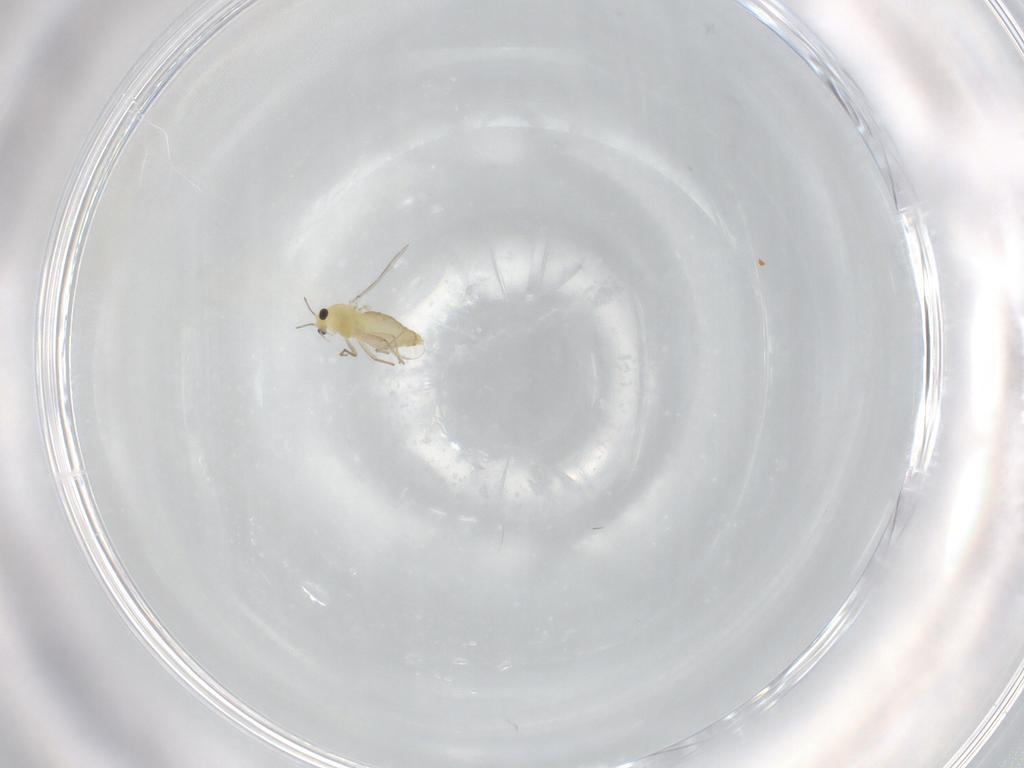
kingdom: Animalia
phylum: Arthropoda
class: Insecta
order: Diptera
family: Chironomidae
